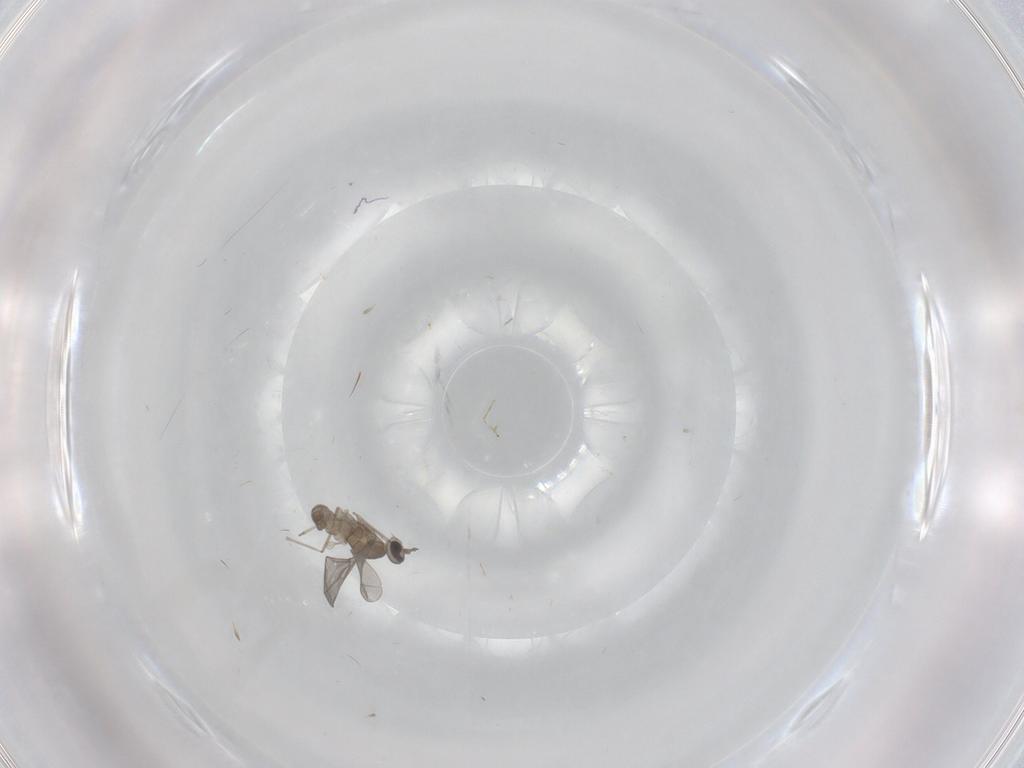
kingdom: Animalia
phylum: Arthropoda
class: Insecta
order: Diptera
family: Cecidomyiidae
